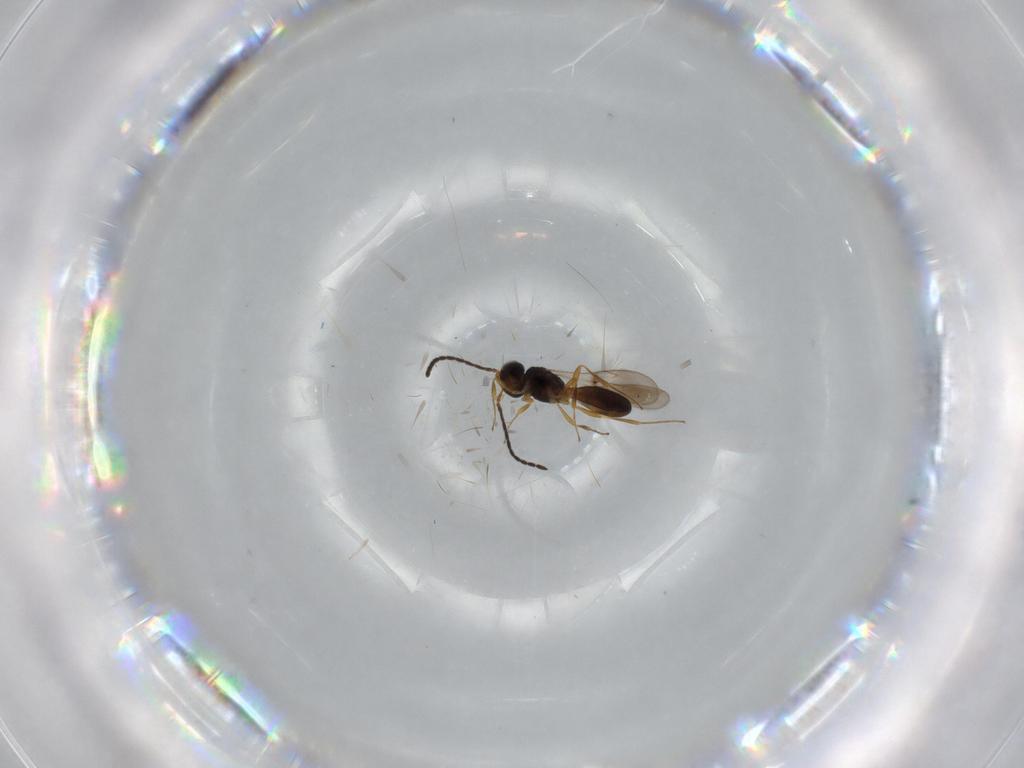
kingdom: Animalia
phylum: Arthropoda
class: Insecta
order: Hymenoptera
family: Scelionidae
